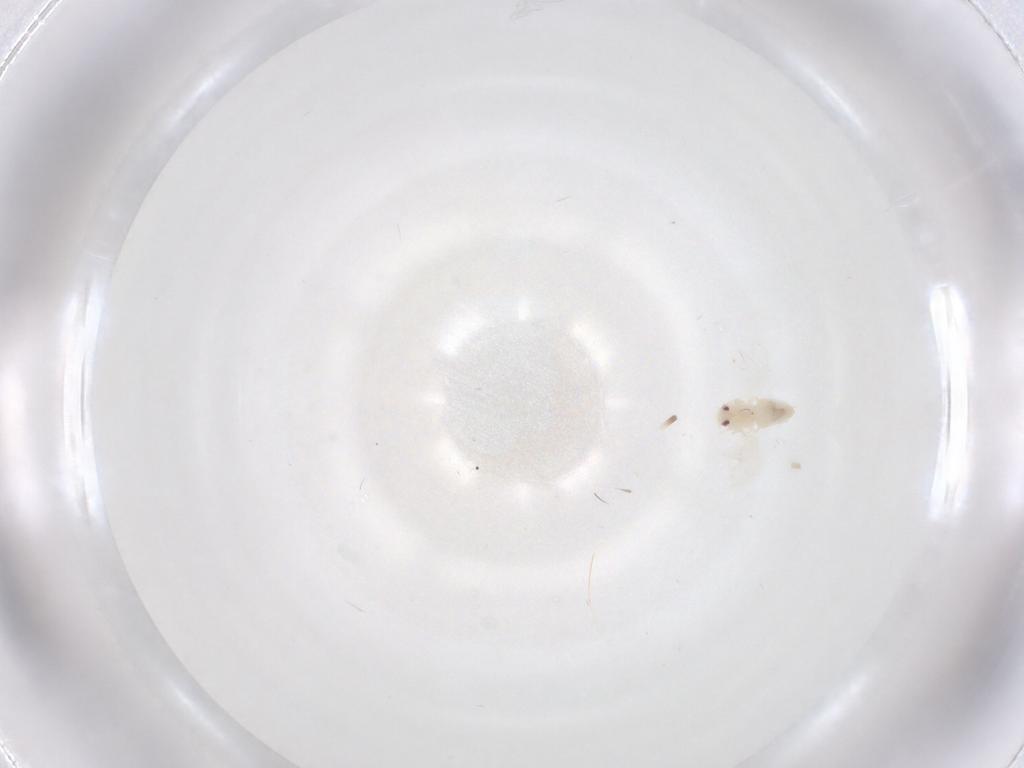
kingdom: Animalia
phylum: Arthropoda
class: Insecta
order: Hemiptera
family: Aleyrodidae
